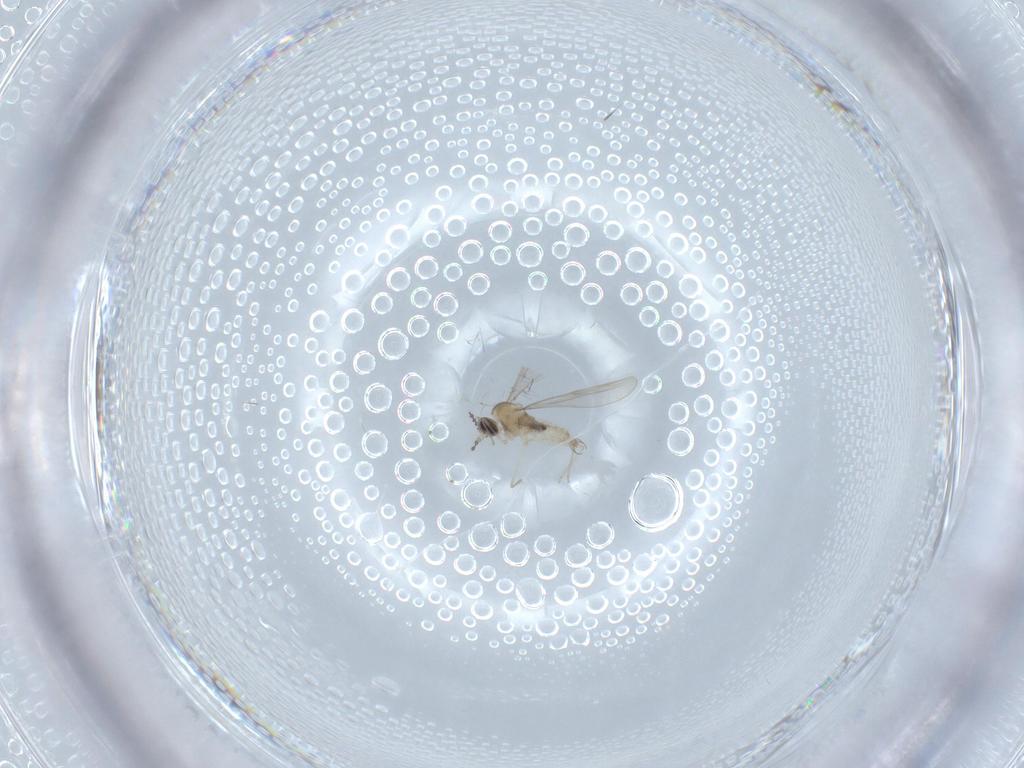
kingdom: Animalia
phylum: Arthropoda
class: Insecta
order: Diptera
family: Cecidomyiidae
